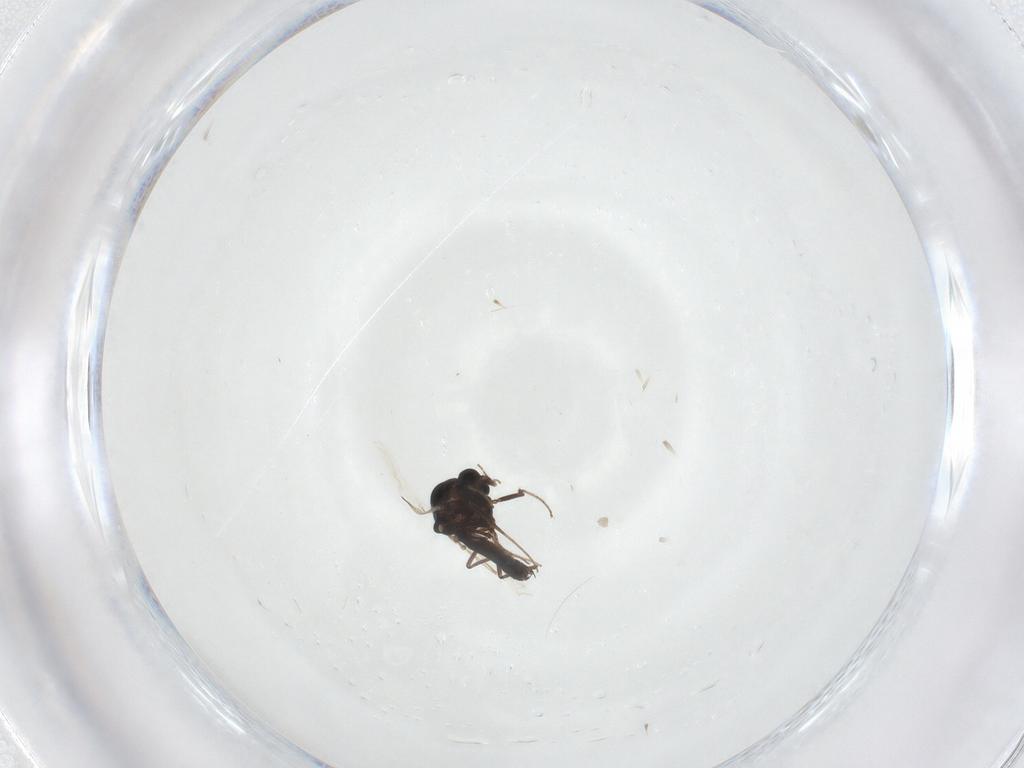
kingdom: Animalia
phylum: Arthropoda
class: Insecta
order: Diptera
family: Ceratopogonidae
